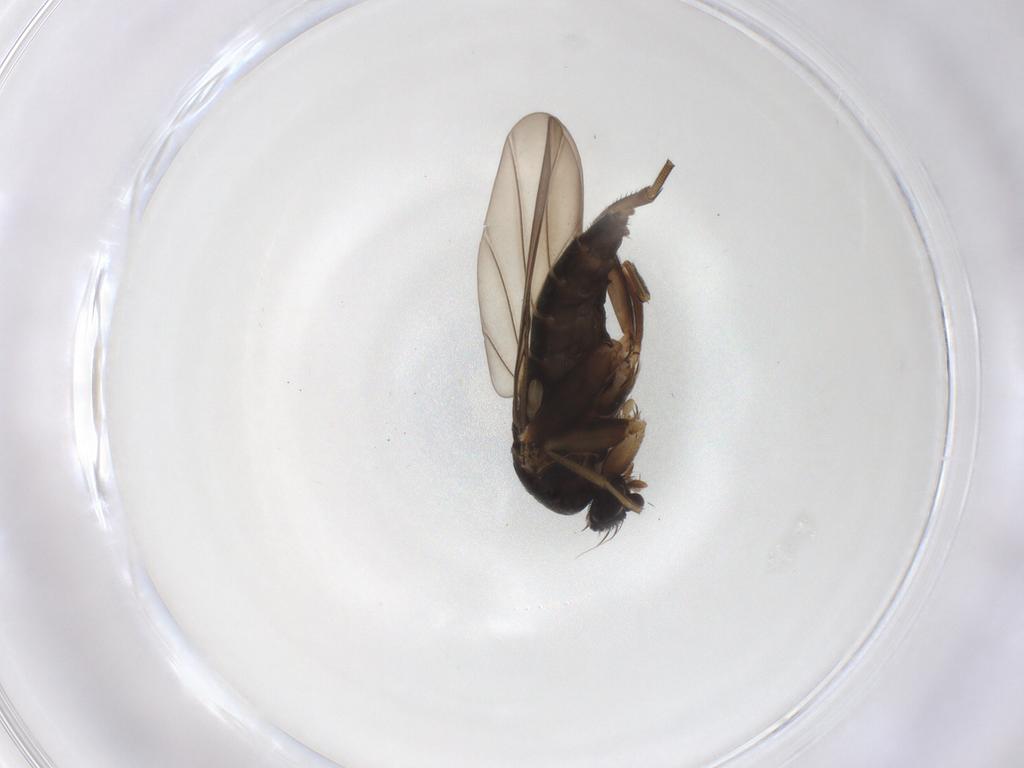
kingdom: Animalia
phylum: Arthropoda
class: Insecta
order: Diptera
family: Phoridae
